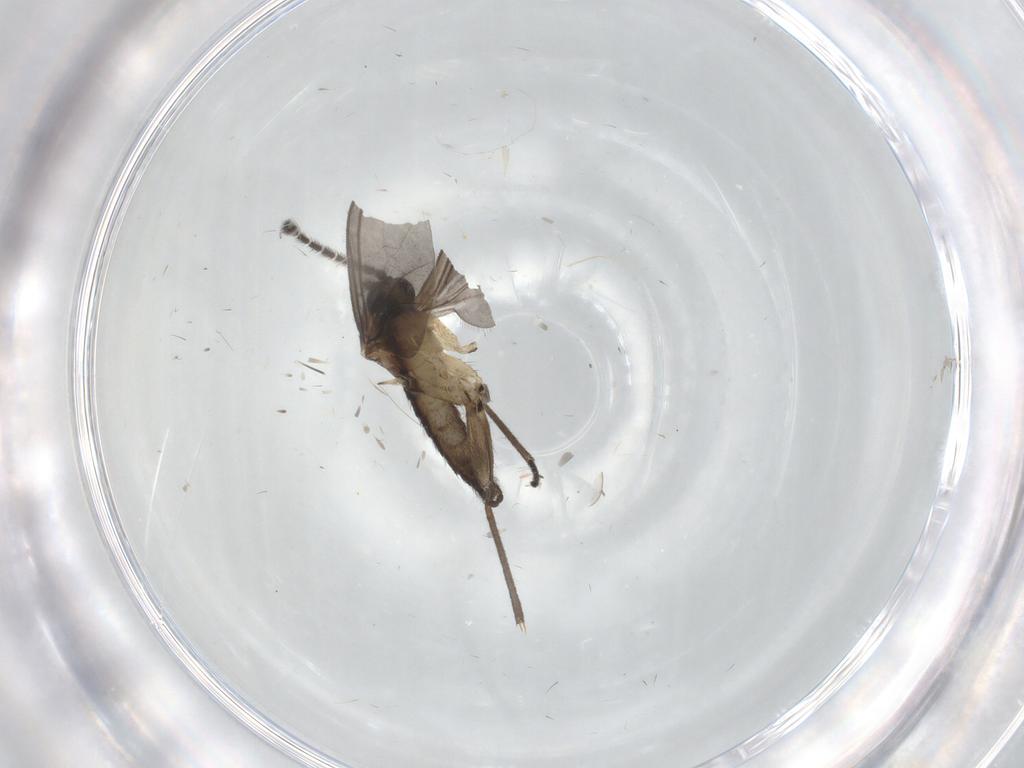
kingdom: Animalia
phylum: Arthropoda
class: Insecta
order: Diptera
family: Sciaridae
